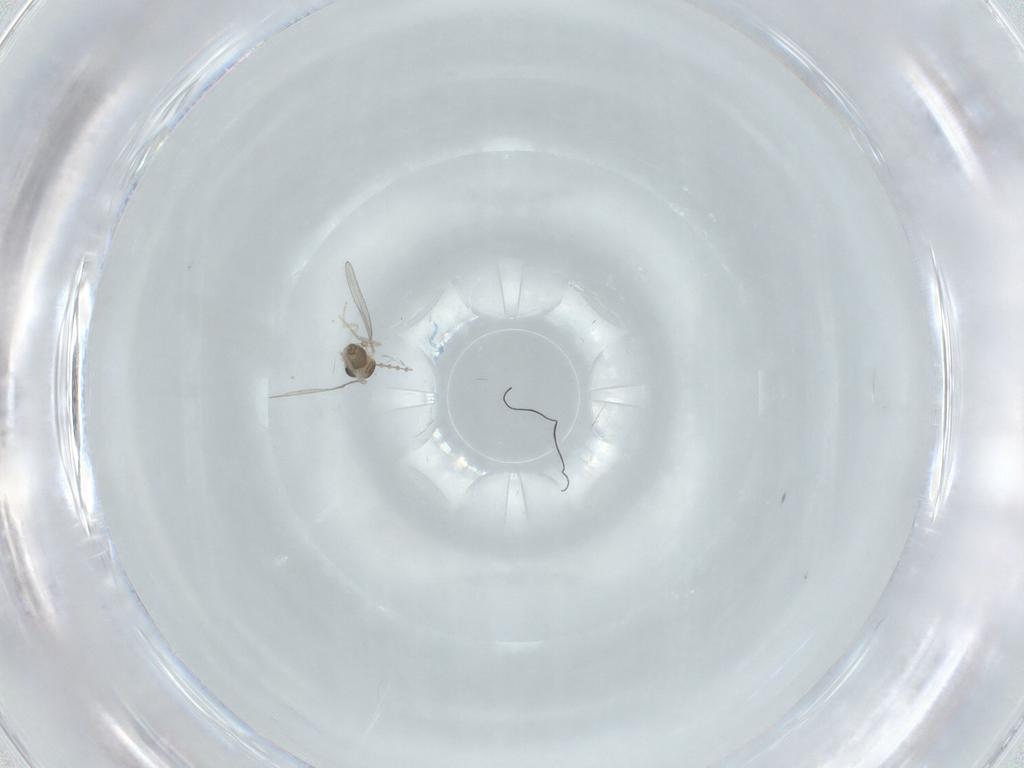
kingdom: Animalia
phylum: Arthropoda
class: Insecta
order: Diptera
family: Cecidomyiidae
